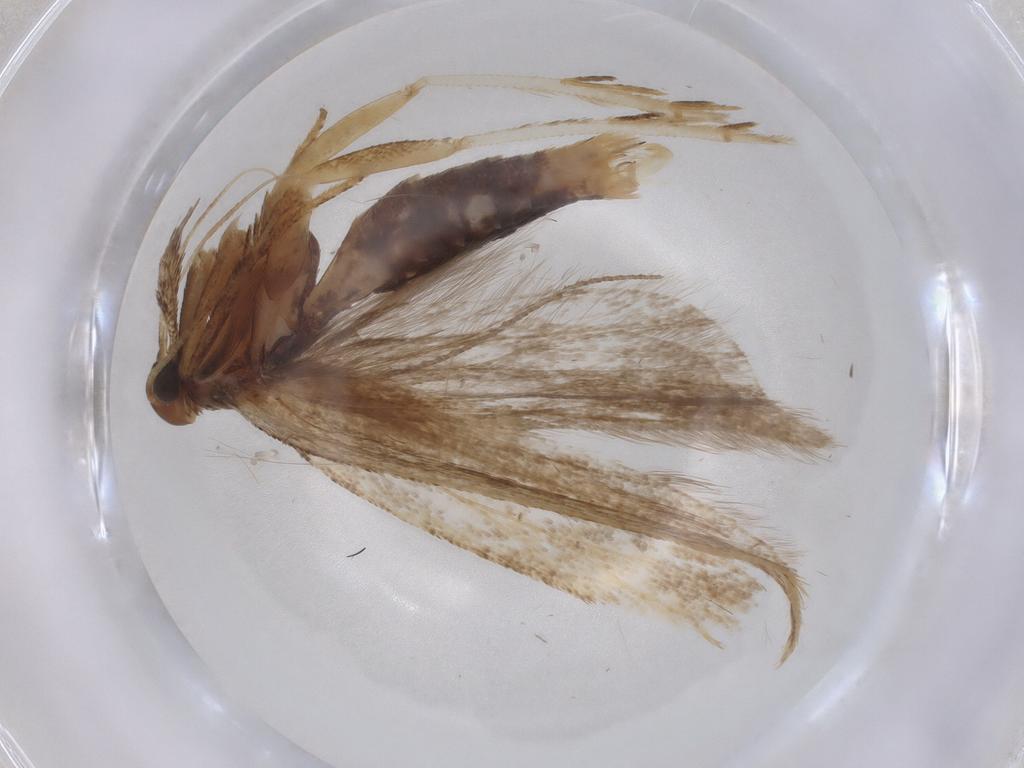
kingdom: Animalia
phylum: Arthropoda
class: Insecta
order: Lepidoptera
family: Gelechiidae
